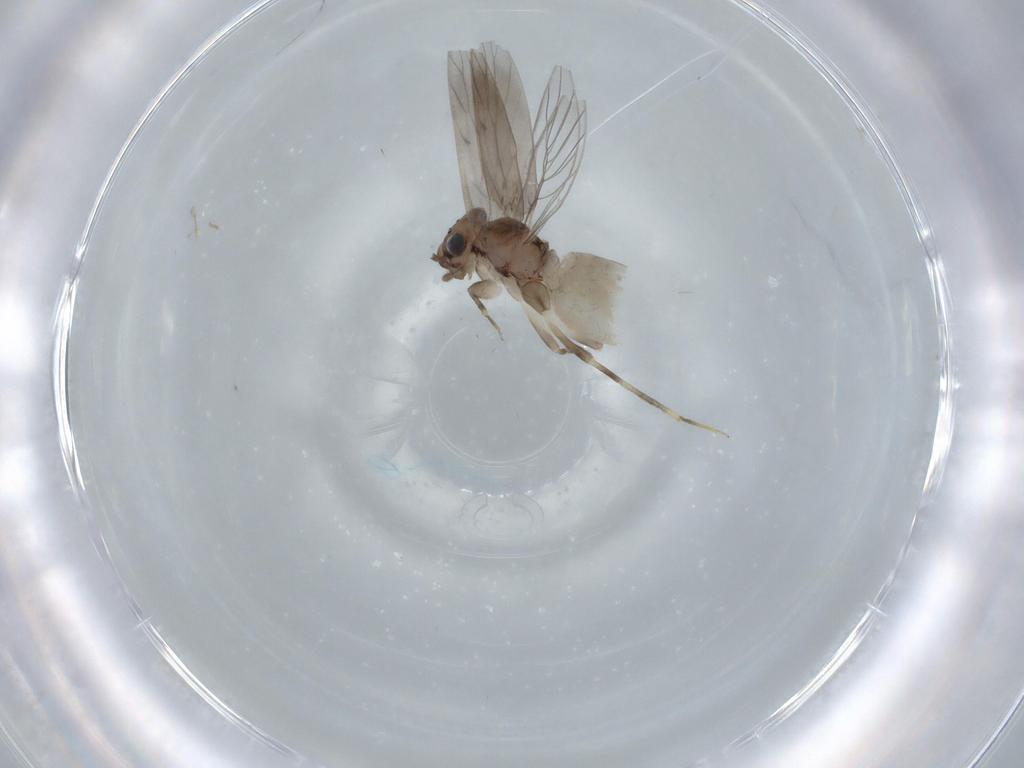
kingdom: Animalia
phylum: Arthropoda
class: Insecta
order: Psocodea
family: Lepidopsocidae
